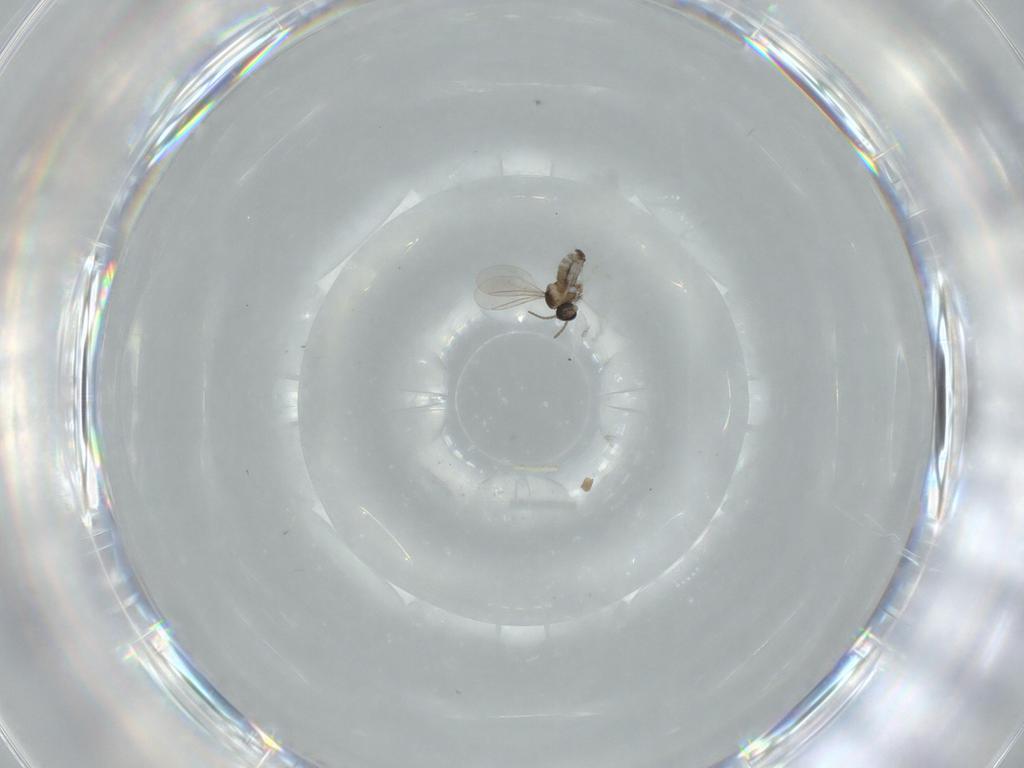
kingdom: Animalia
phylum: Arthropoda
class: Insecta
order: Diptera
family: Cecidomyiidae
